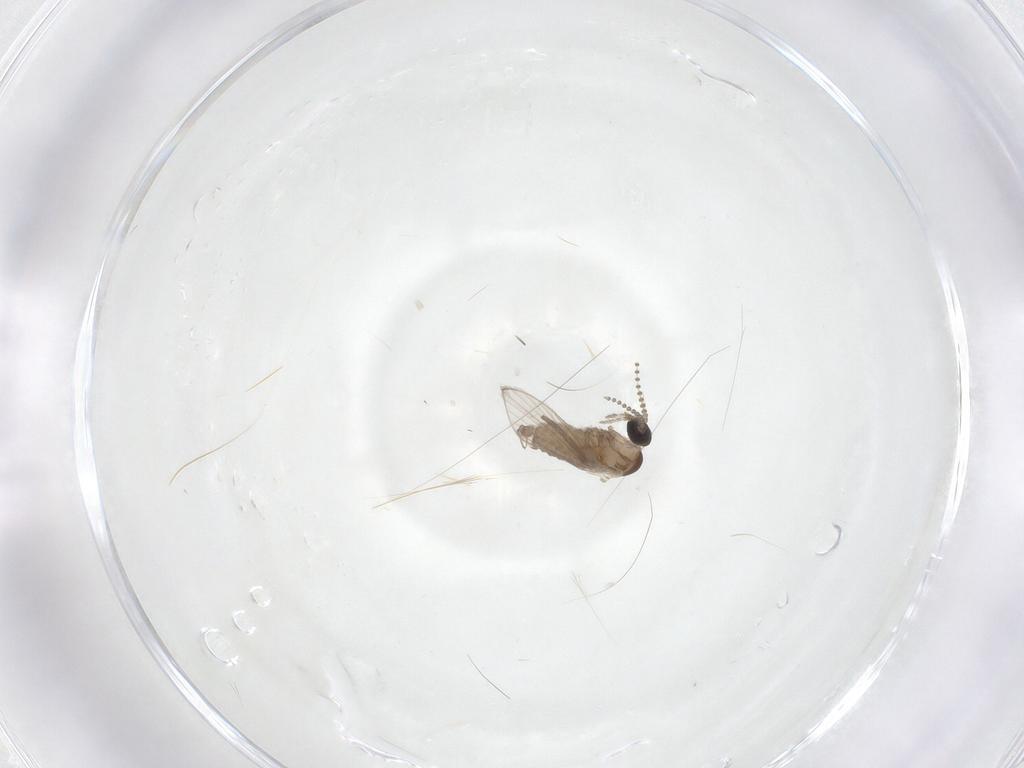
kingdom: Animalia
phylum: Arthropoda
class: Insecta
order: Diptera
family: Psychodidae
